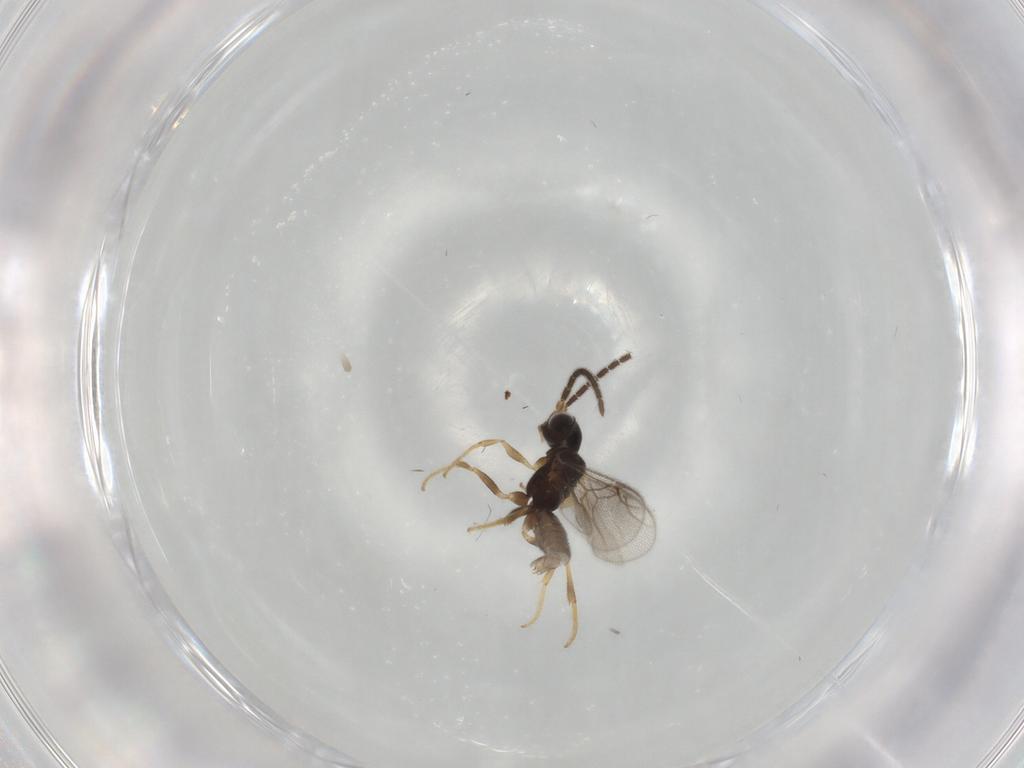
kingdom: Animalia
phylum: Arthropoda
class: Insecta
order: Hymenoptera
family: Dryinidae
